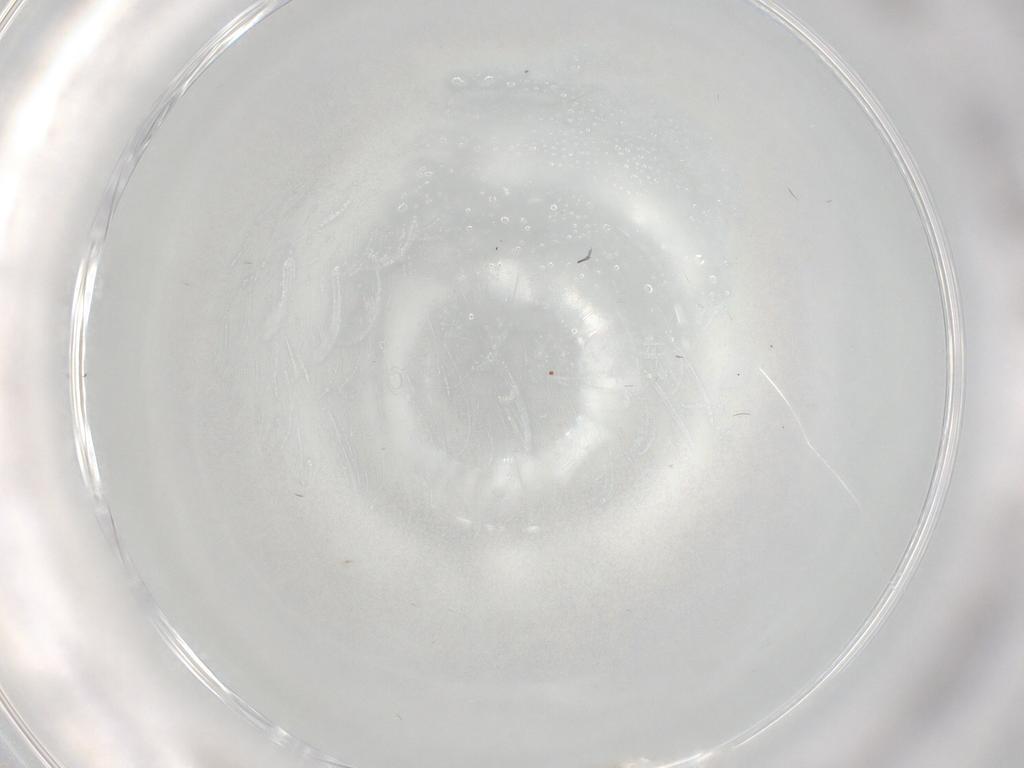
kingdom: Animalia
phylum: Arthropoda
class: Insecta
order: Diptera
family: Cecidomyiidae
